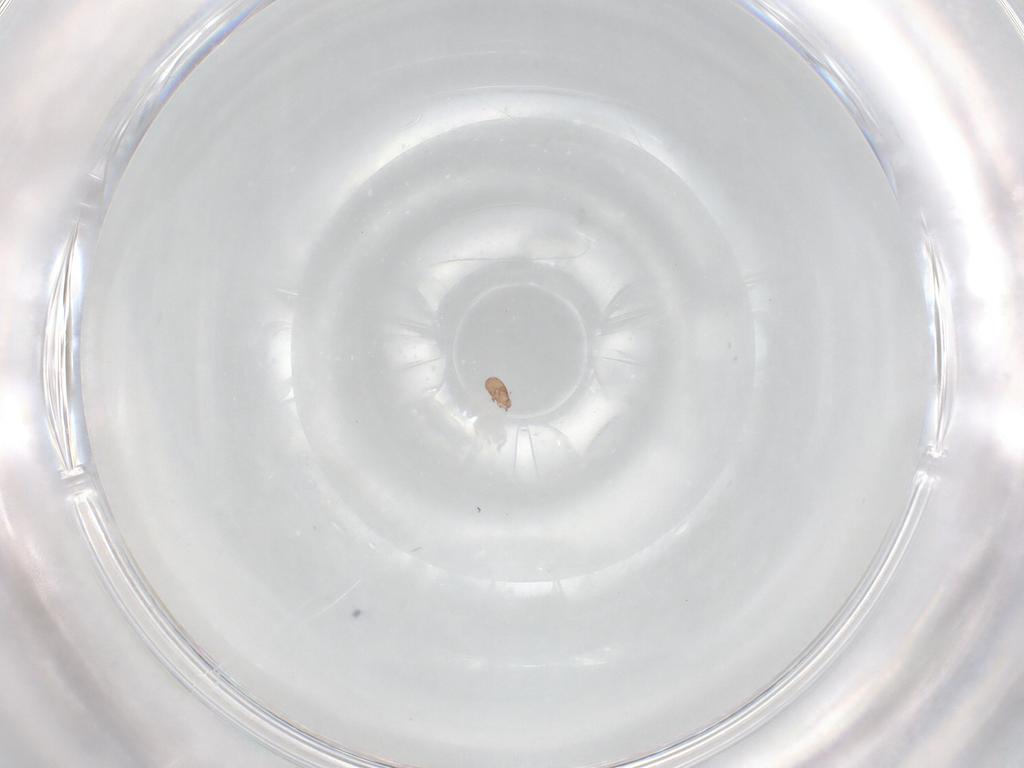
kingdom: Animalia
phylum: Arthropoda
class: Arachnida
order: Sarcoptiformes
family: Eremaeidae
